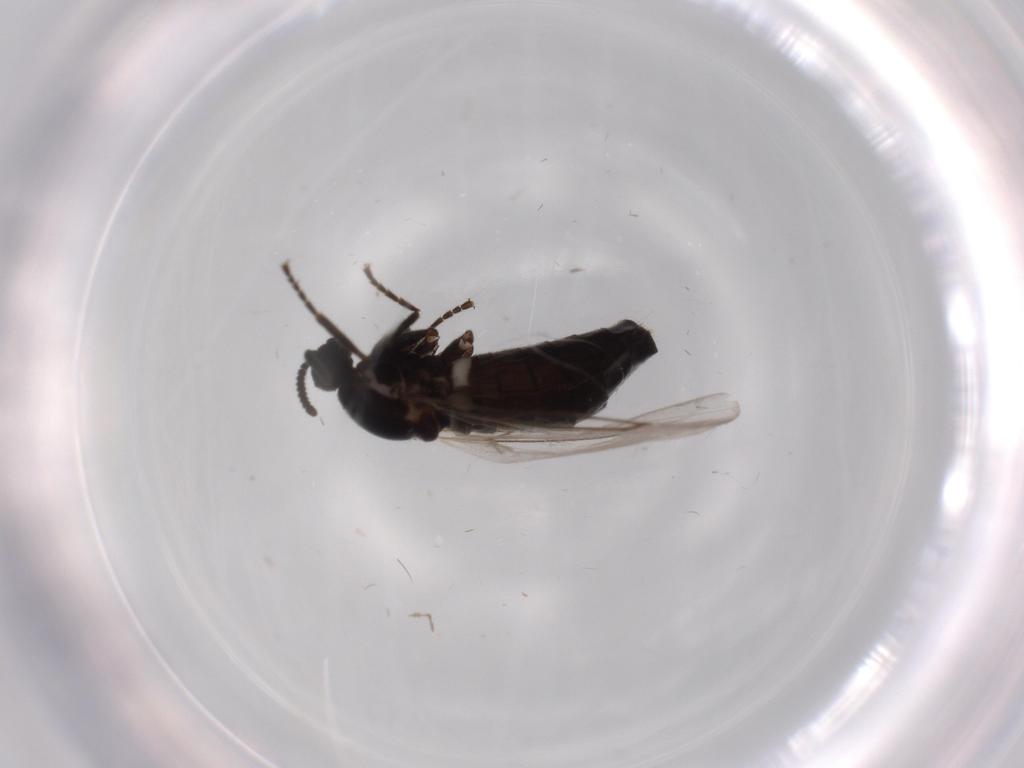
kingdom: Animalia
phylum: Arthropoda
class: Insecta
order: Diptera
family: Scatopsidae
